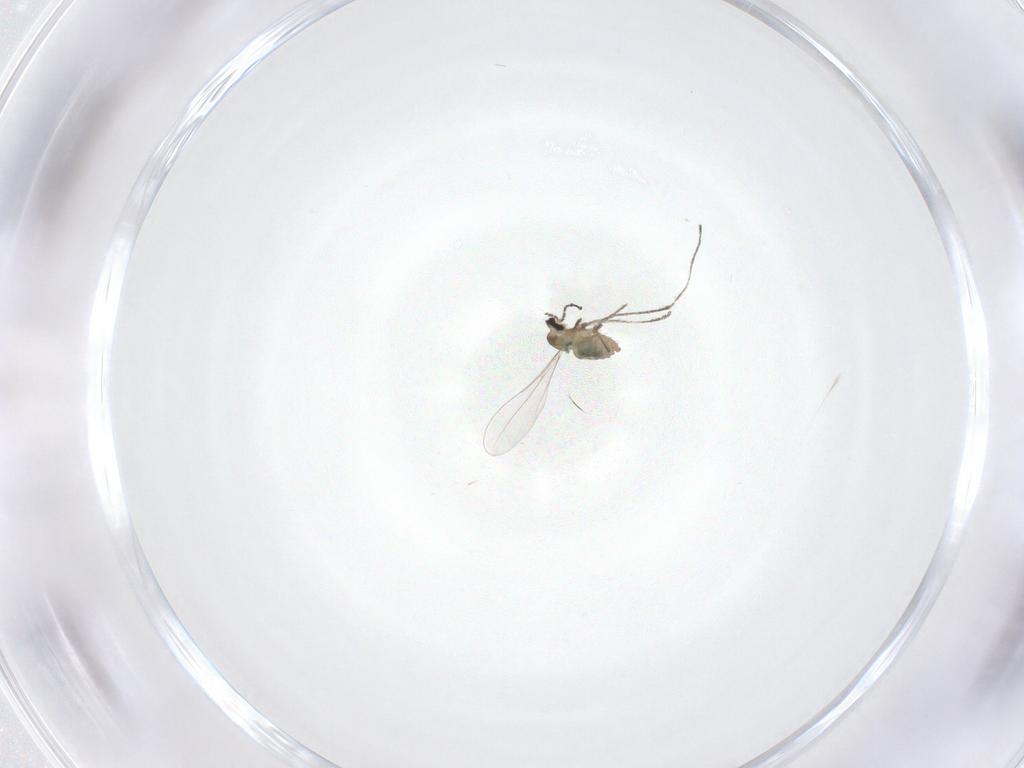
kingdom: Animalia
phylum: Arthropoda
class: Insecta
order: Diptera
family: Cecidomyiidae
